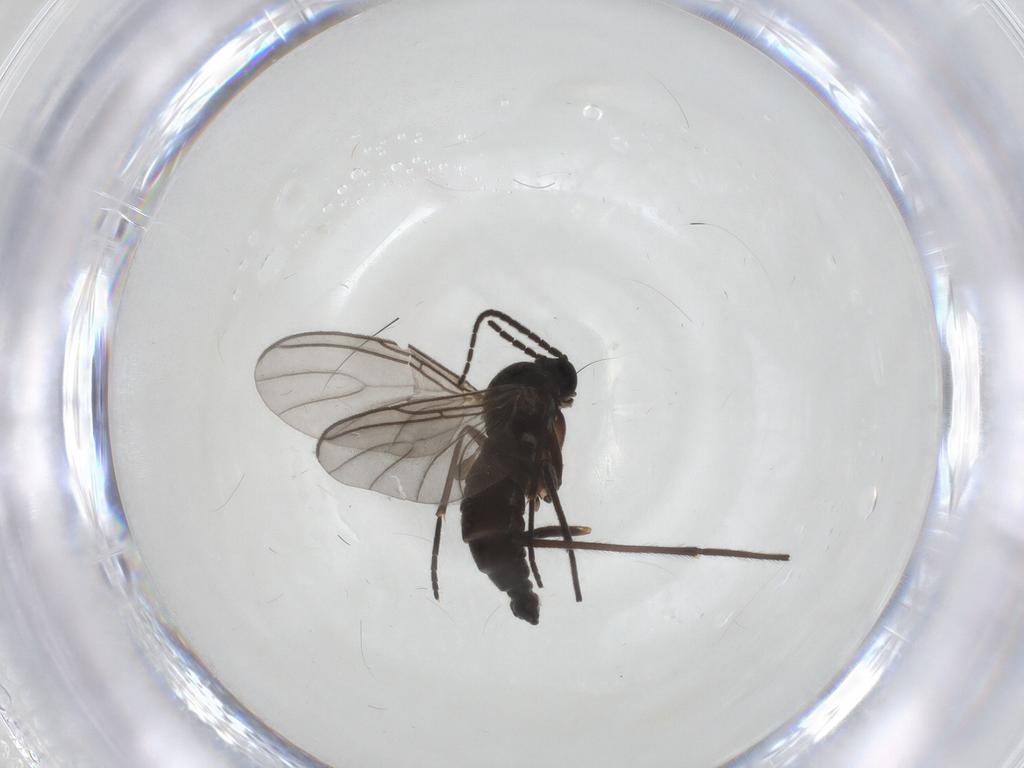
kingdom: Animalia
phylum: Arthropoda
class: Insecta
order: Diptera
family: Sciaridae
